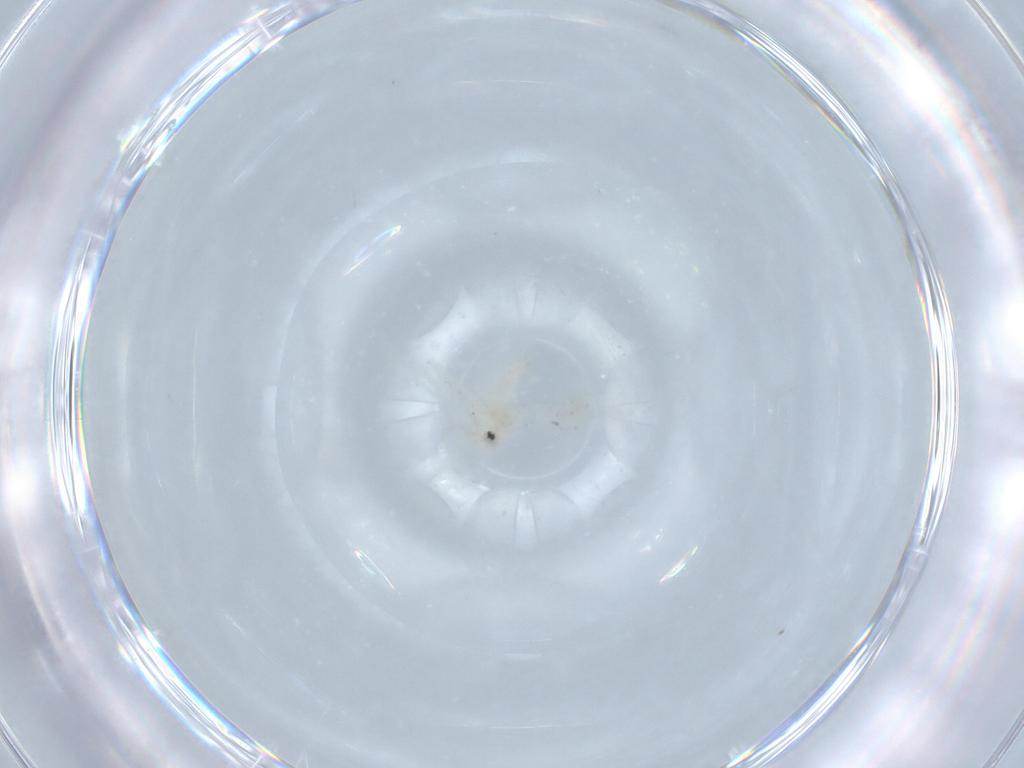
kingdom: Animalia
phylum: Arthropoda
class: Insecta
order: Hemiptera
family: Aleyrodidae
